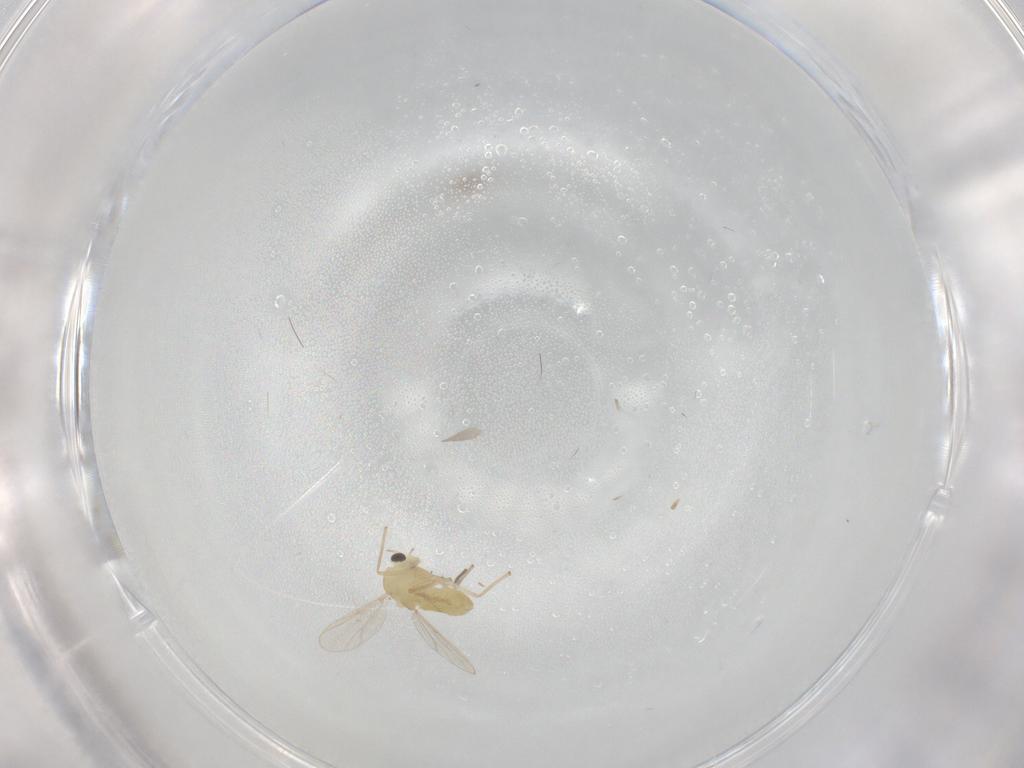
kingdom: Animalia
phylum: Arthropoda
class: Insecta
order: Diptera
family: Chironomidae
